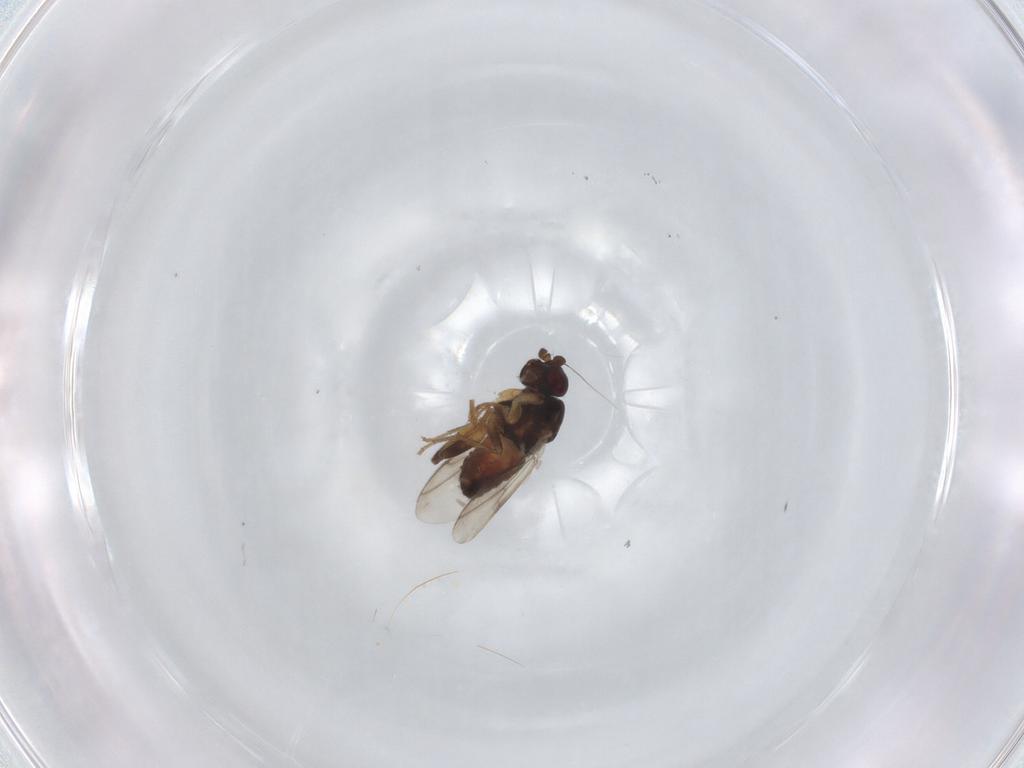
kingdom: Animalia
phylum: Arthropoda
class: Insecta
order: Diptera
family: Sphaeroceridae
